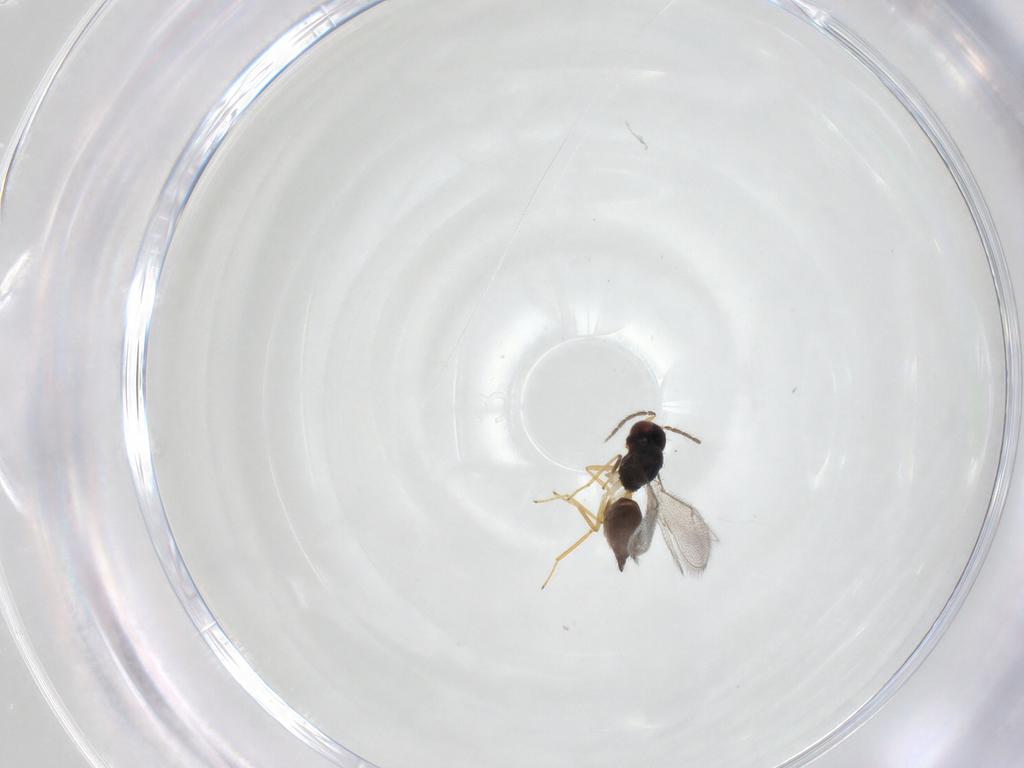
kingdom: Animalia
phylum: Arthropoda
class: Insecta
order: Hymenoptera
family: Eulophidae
